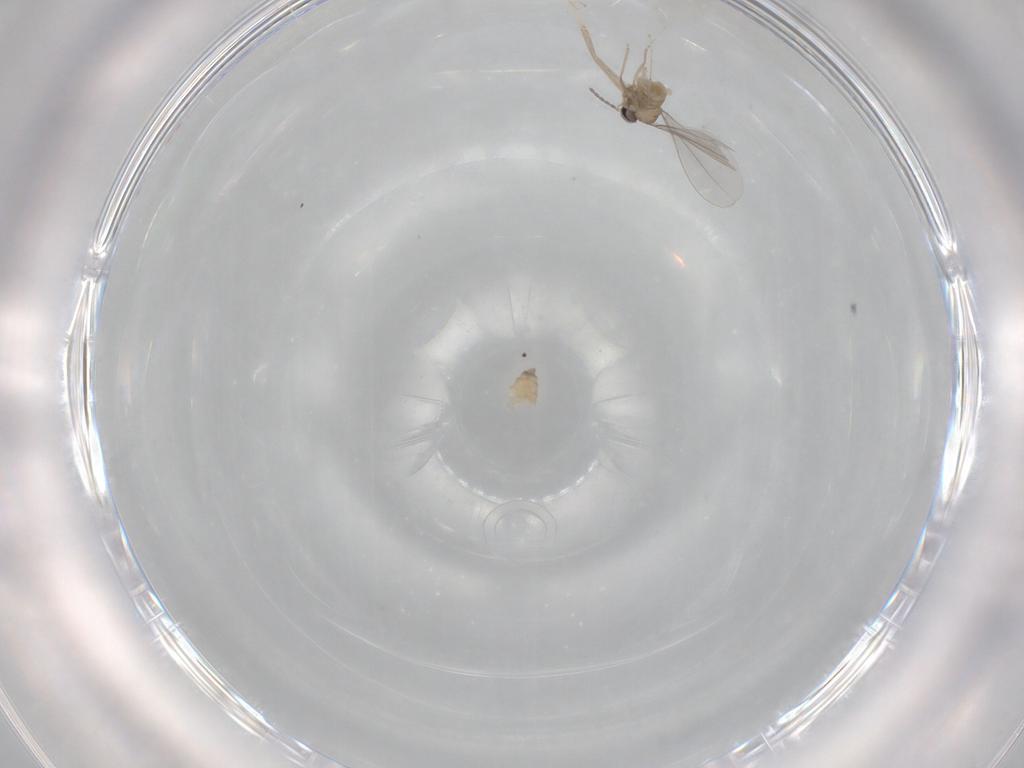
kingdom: Animalia
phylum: Arthropoda
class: Insecta
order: Diptera
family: Cecidomyiidae
